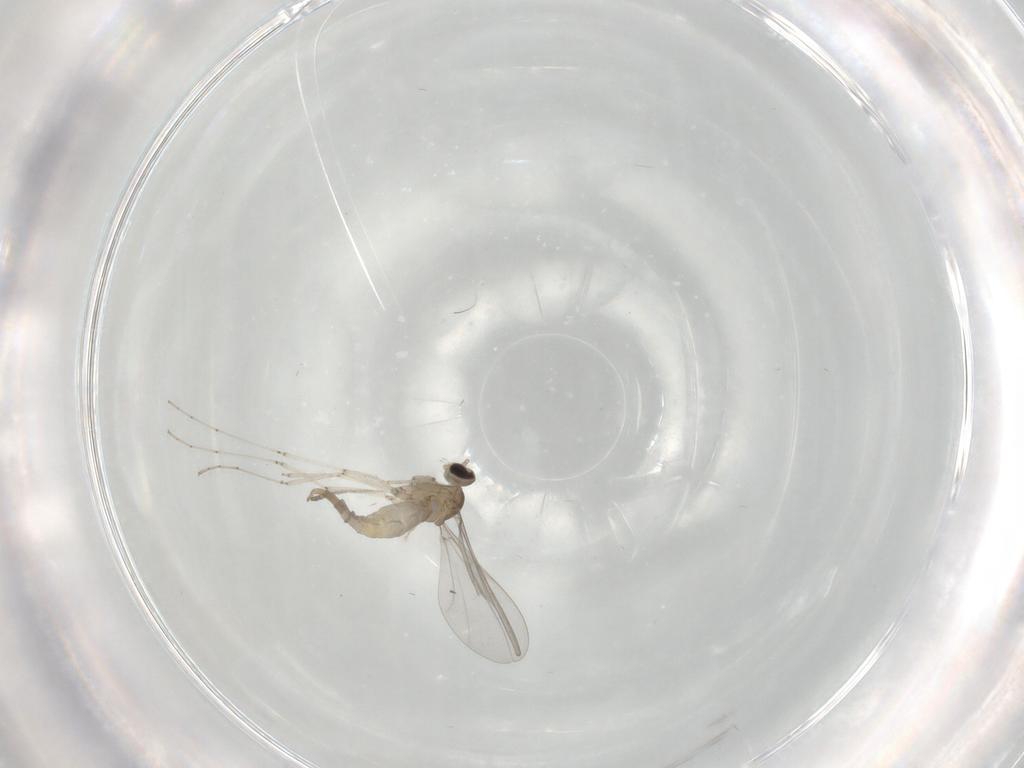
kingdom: Animalia
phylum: Arthropoda
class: Insecta
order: Diptera
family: Cecidomyiidae
